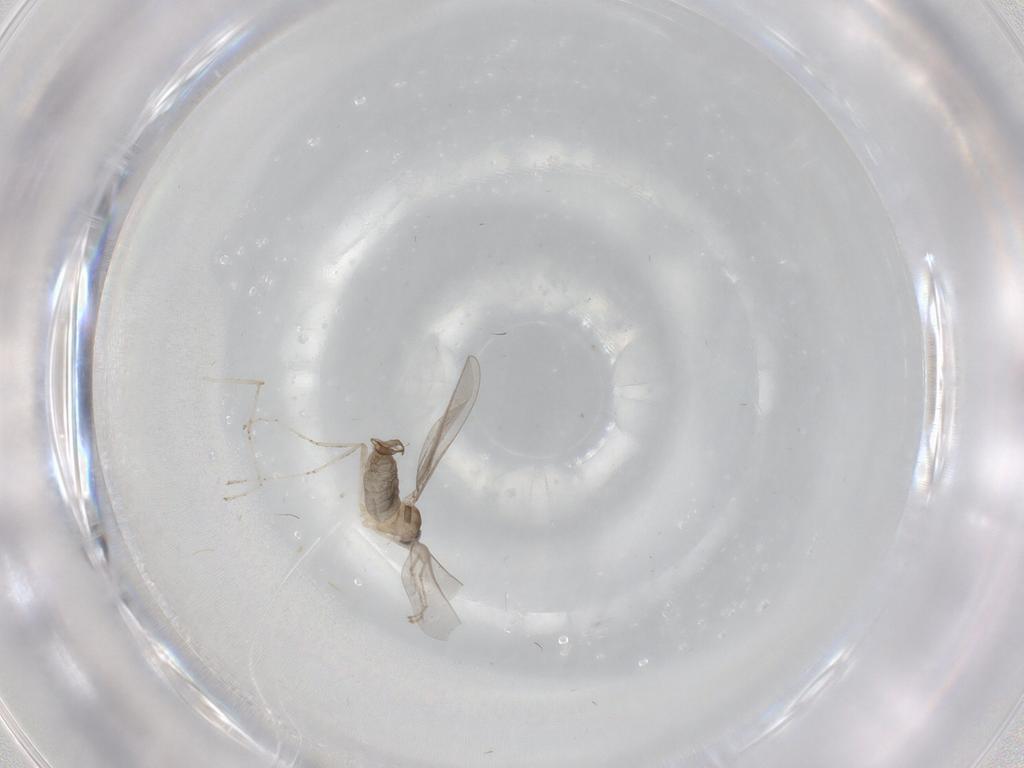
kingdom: Animalia
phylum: Arthropoda
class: Insecta
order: Diptera
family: Cecidomyiidae
